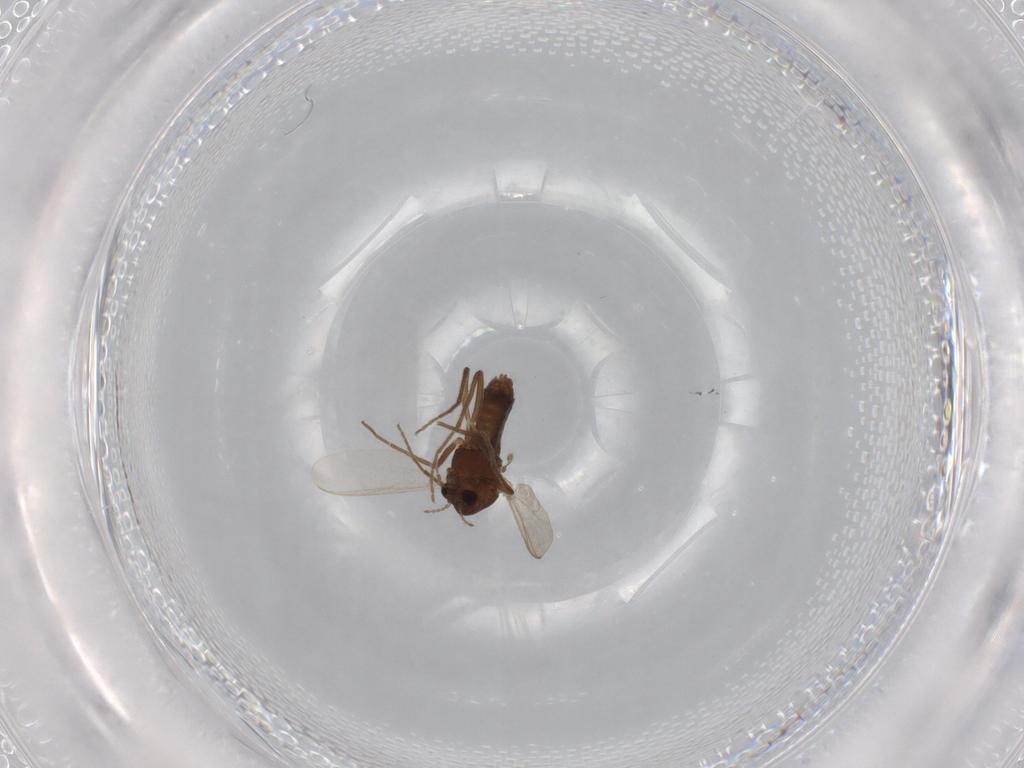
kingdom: Animalia
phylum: Arthropoda
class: Insecta
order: Diptera
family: Chironomidae
